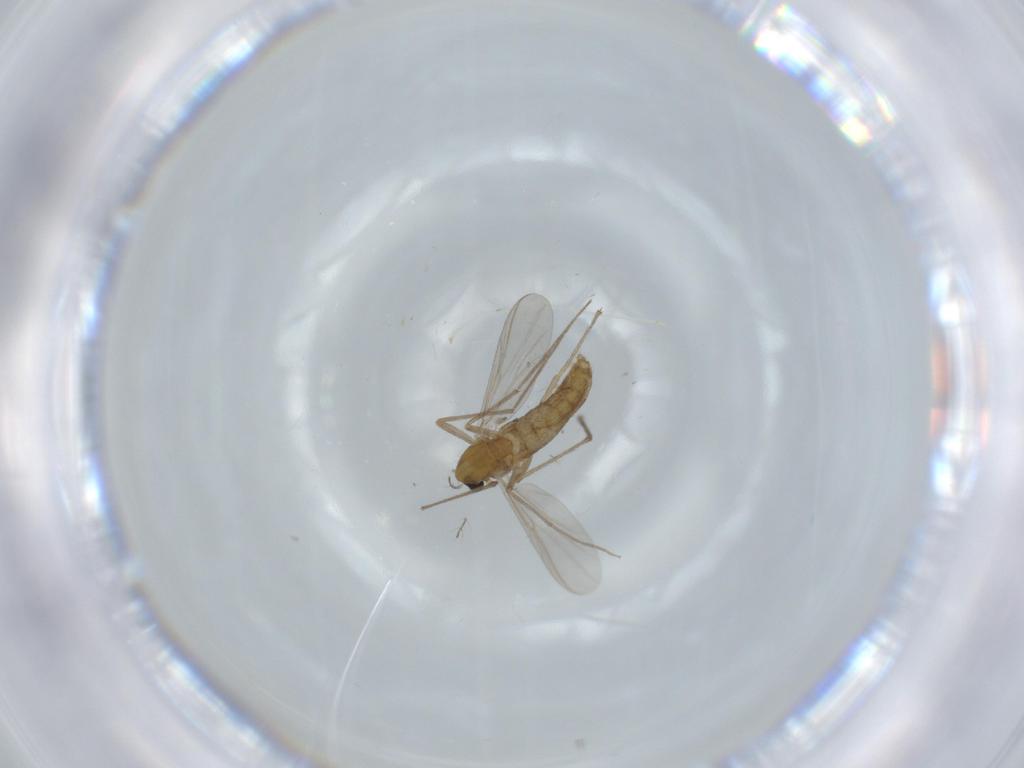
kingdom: Animalia
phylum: Arthropoda
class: Insecta
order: Diptera
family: Chironomidae
